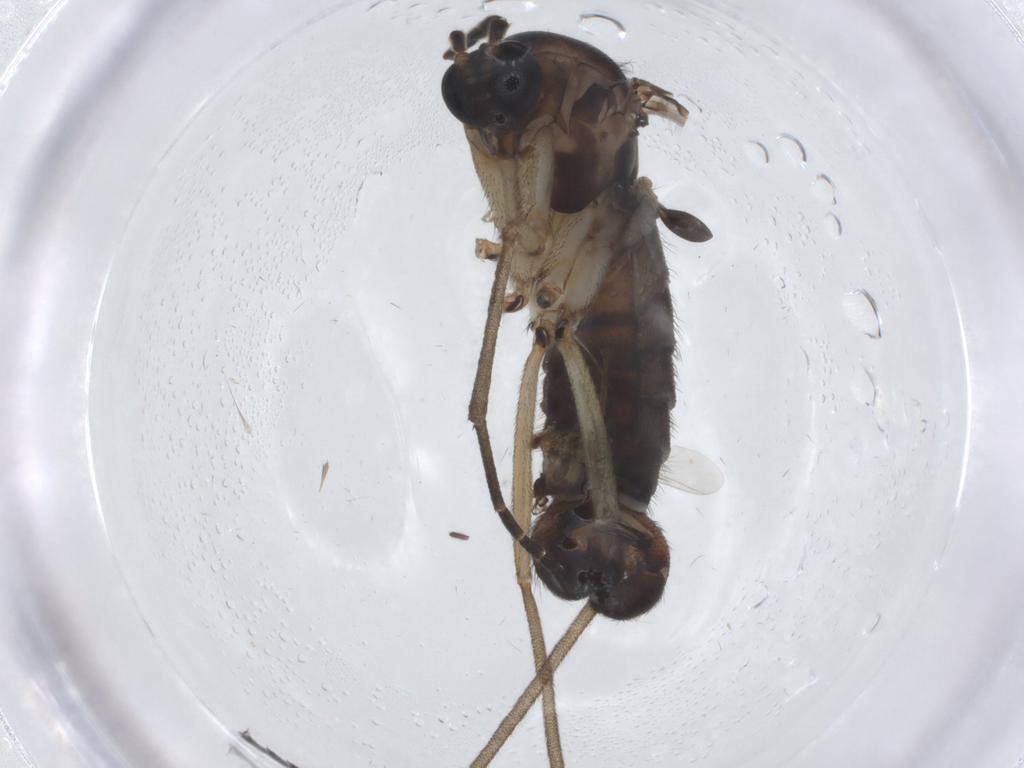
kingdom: Animalia
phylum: Arthropoda
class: Insecta
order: Diptera
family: Sciaridae
